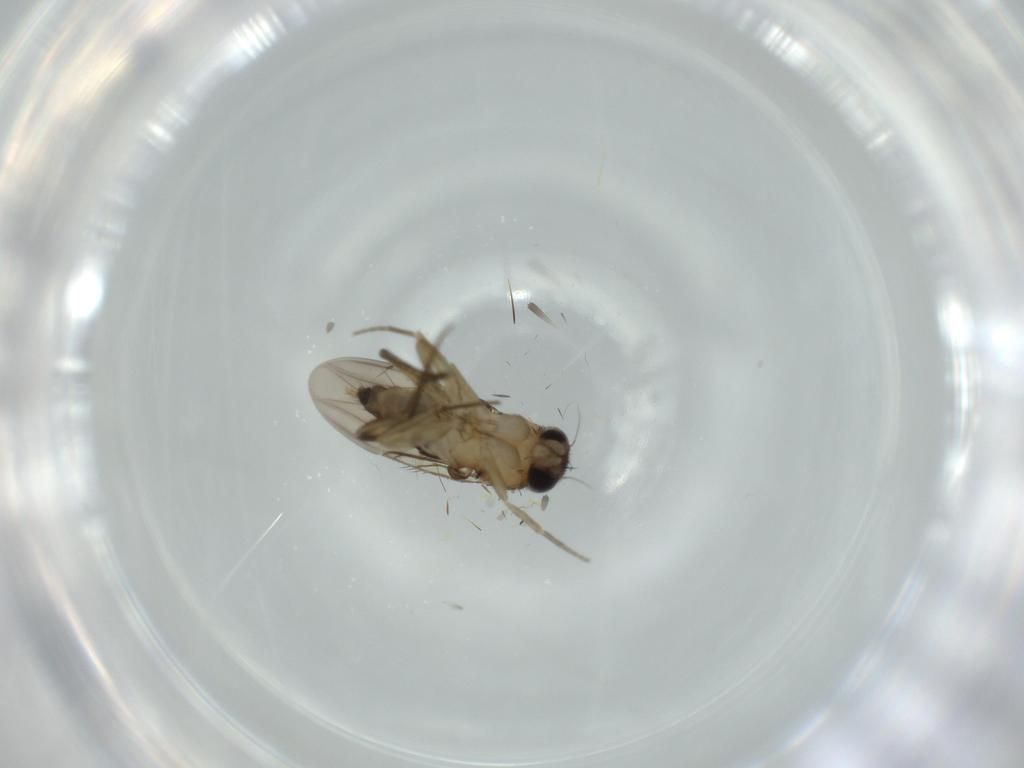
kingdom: Animalia
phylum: Arthropoda
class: Insecta
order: Diptera
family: Phoridae
